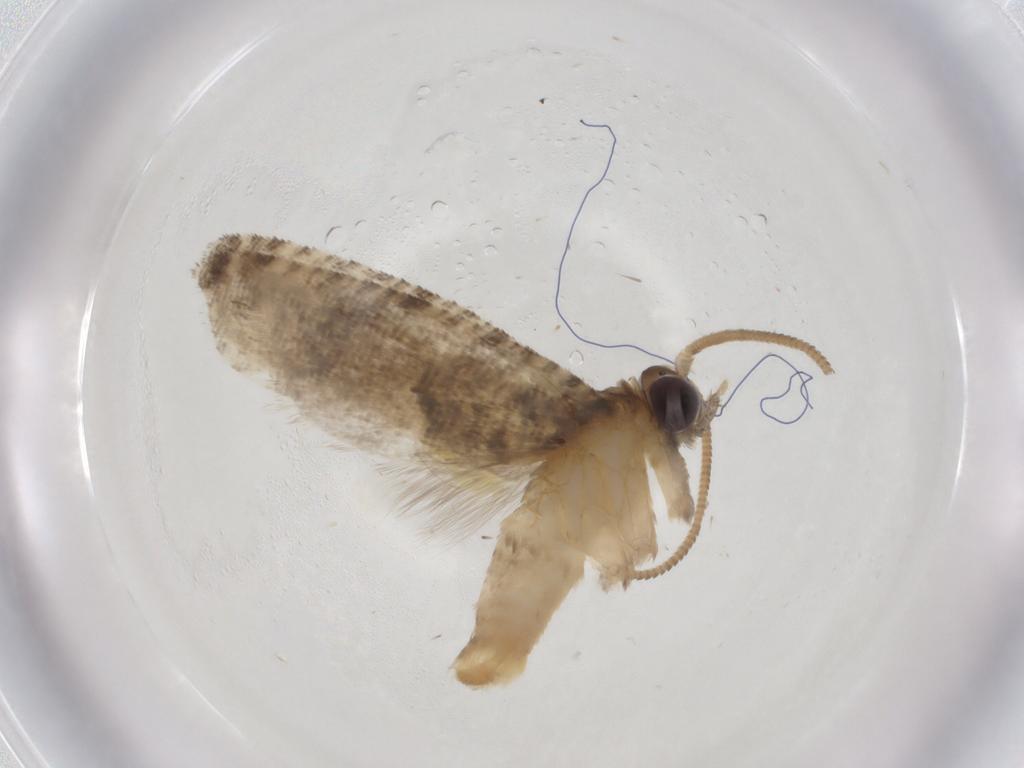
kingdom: Animalia
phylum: Arthropoda
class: Insecta
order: Lepidoptera
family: Tortricidae
